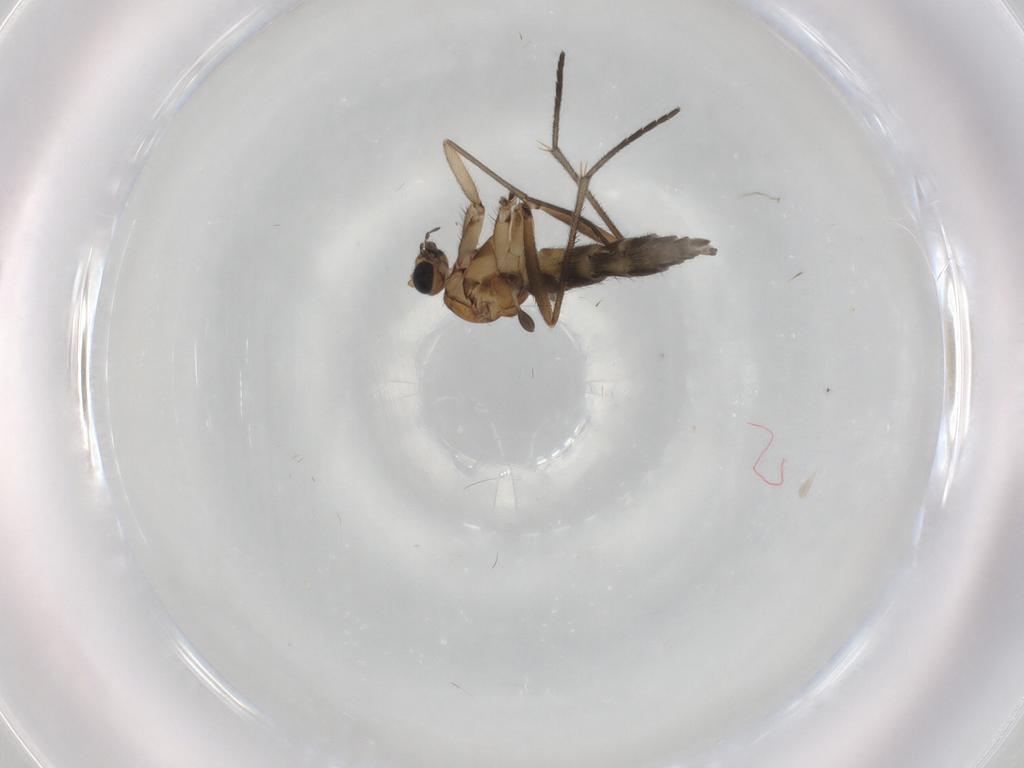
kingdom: Animalia
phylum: Arthropoda
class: Insecta
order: Diptera
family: Sciaridae
